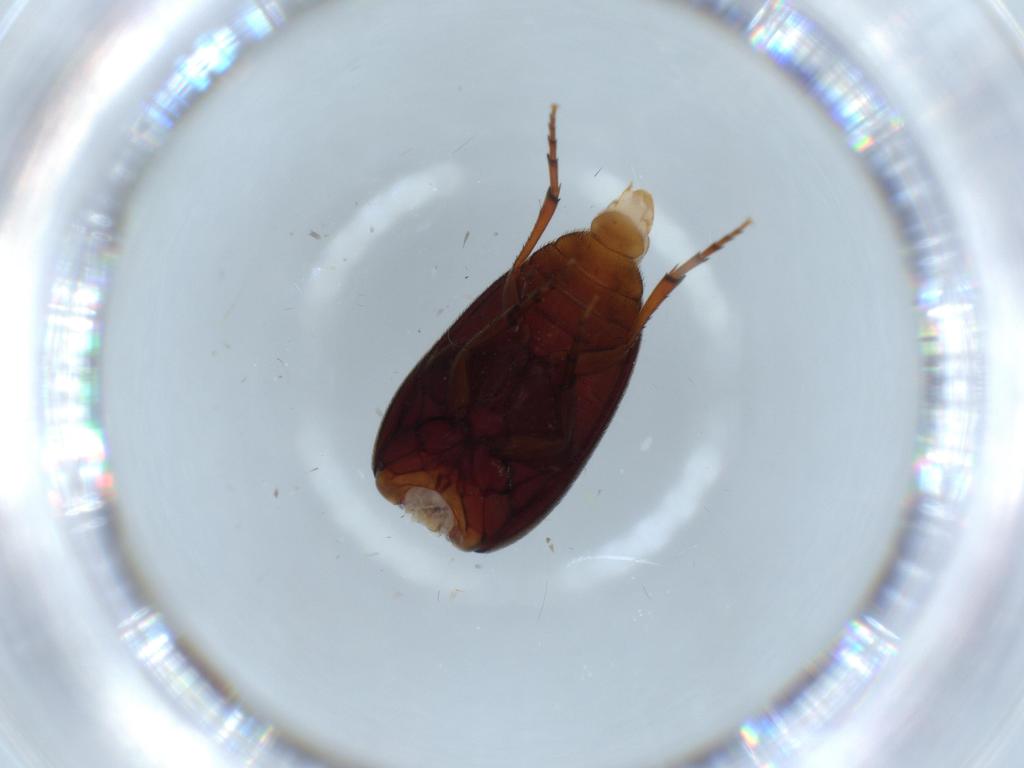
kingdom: Animalia
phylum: Arthropoda
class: Insecta
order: Coleoptera
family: Eucinetidae
